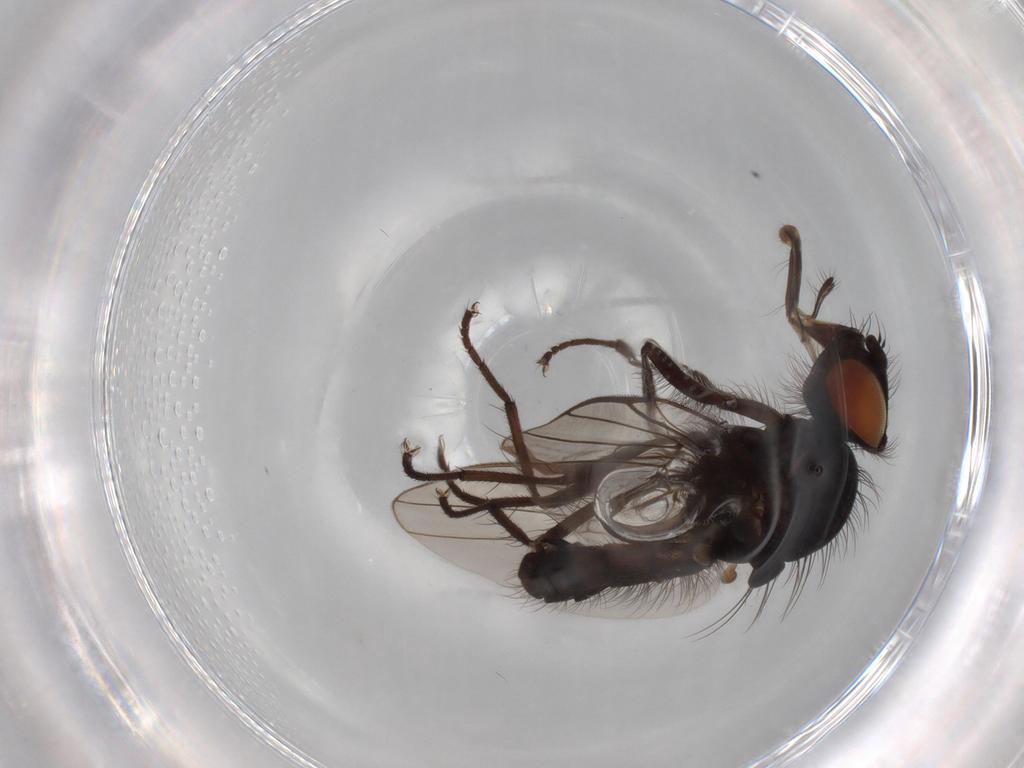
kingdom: Animalia
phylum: Arthropoda
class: Insecta
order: Diptera
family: Anthomyiidae
